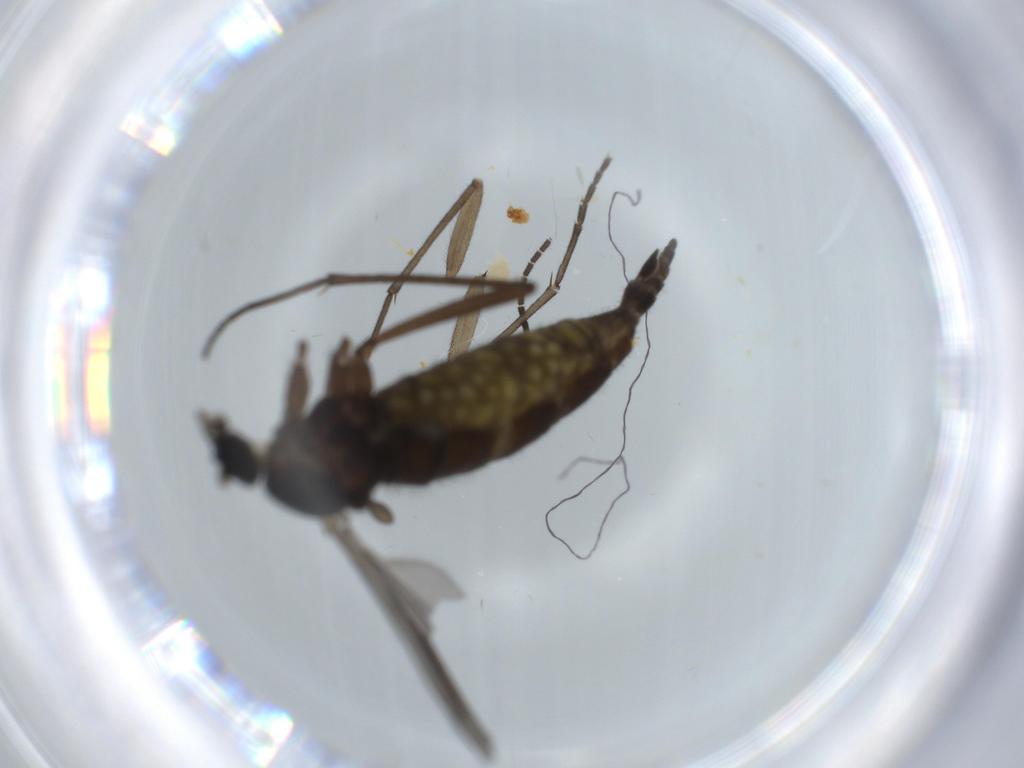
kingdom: Animalia
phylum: Arthropoda
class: Insecta
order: Diptera
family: Sciaridae
